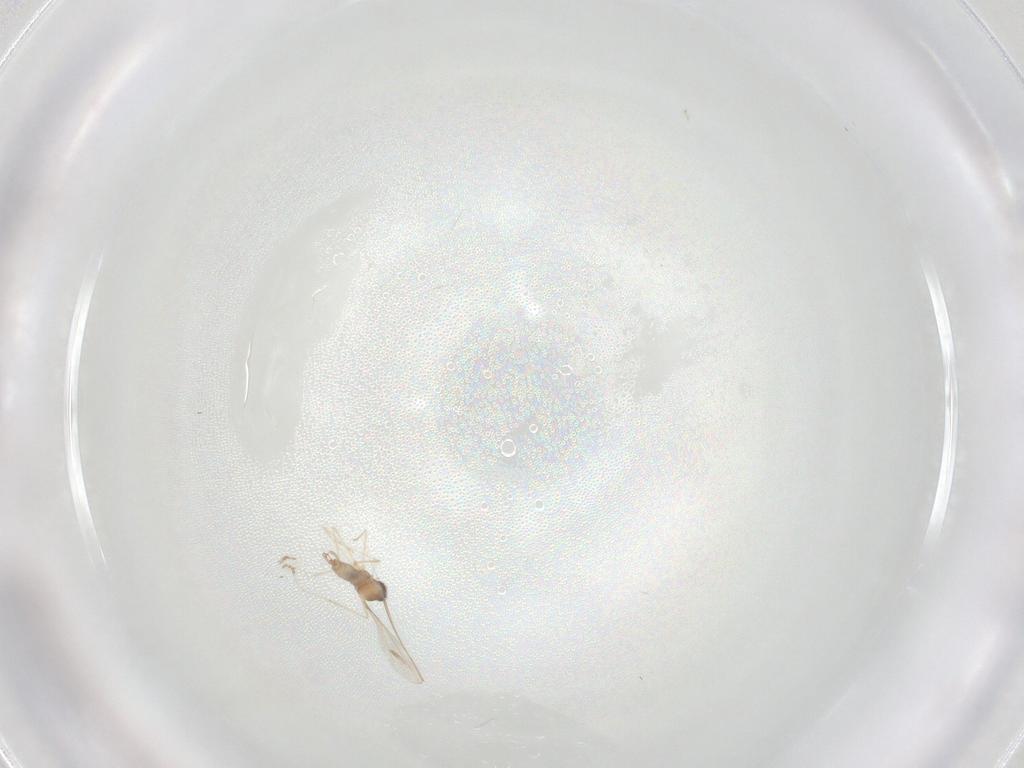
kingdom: Animalia
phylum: Arthropoda
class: Insecta
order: Diptera
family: Cecidomyiidae
